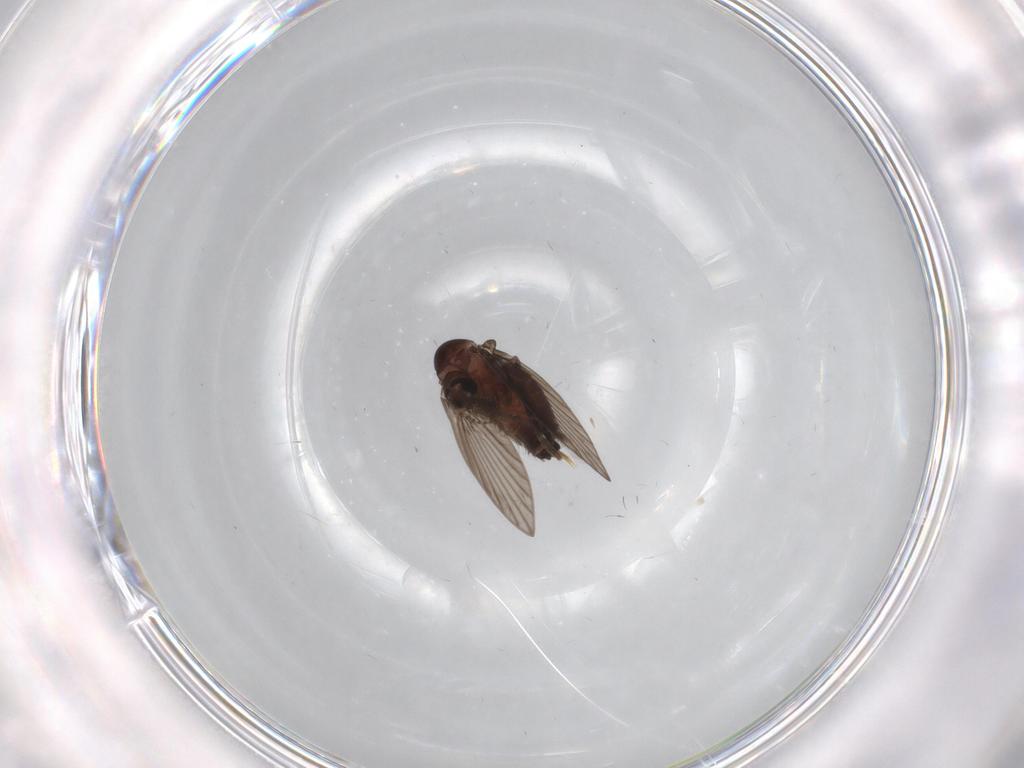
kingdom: Animalia
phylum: Arthropoda
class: Insecta
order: Diptera
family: Psychodidae
